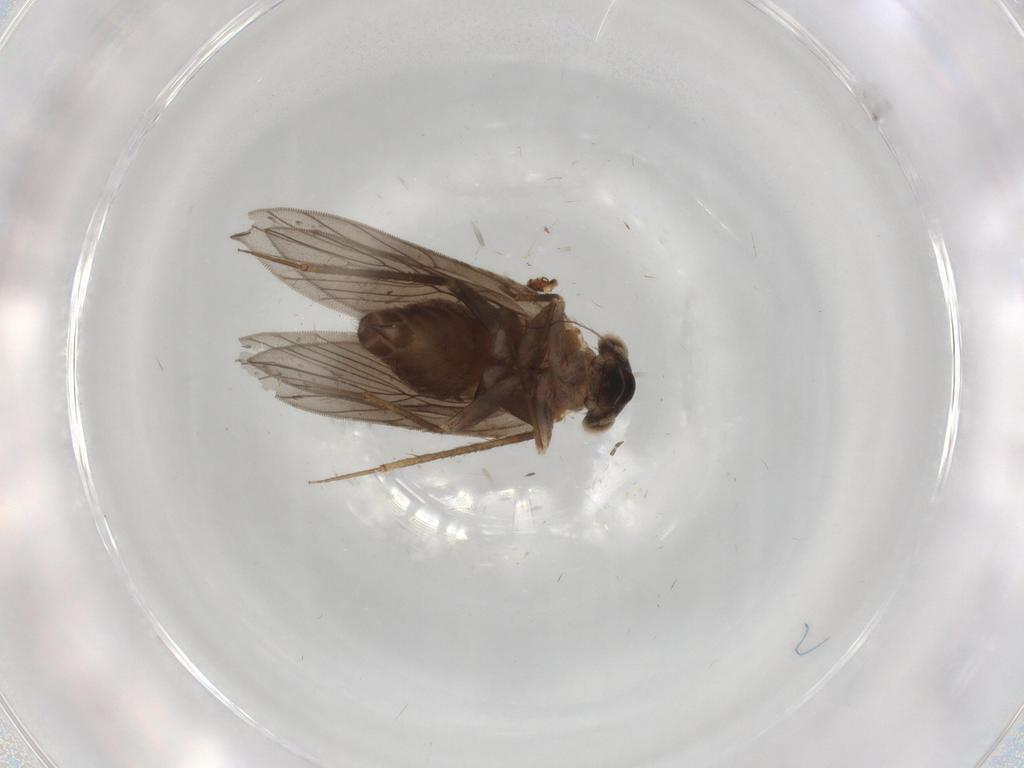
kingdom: Animalia
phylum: Arthropoda
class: Insecta
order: Psocodea
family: Lepidopsocidae
